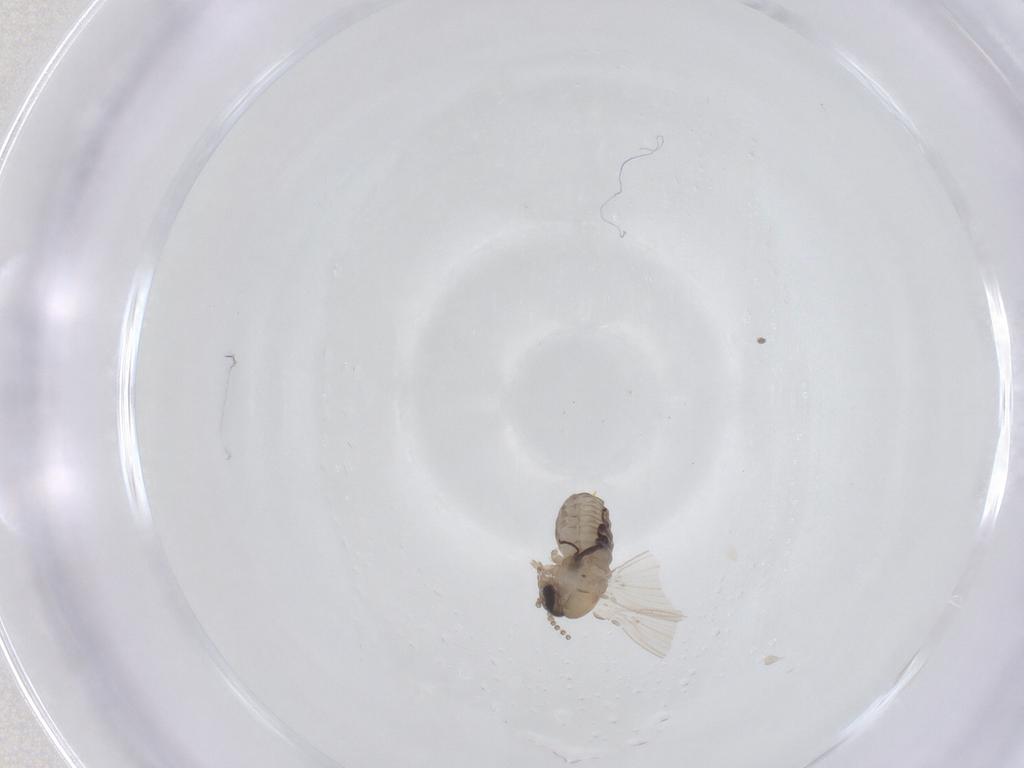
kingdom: Animalia
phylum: Arthropoda
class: Insecta
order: Diptera
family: Psychodidae
